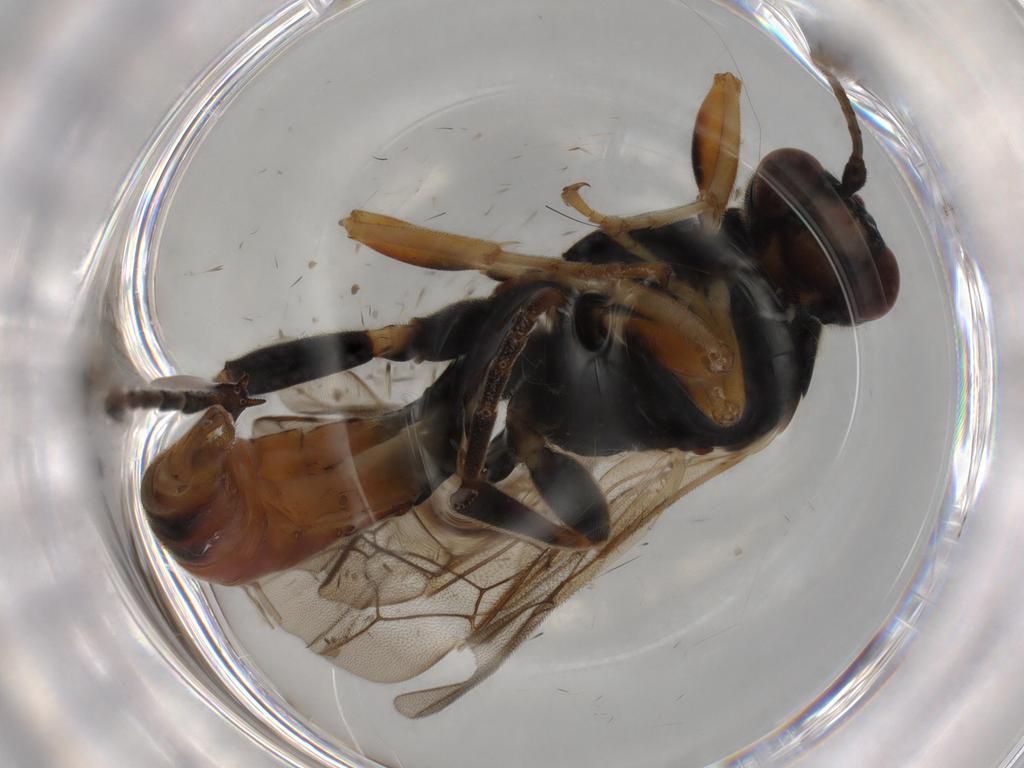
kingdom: Animalia
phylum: Arthropoda
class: Insecta
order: Hymenoptera
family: Ichneumonidae
